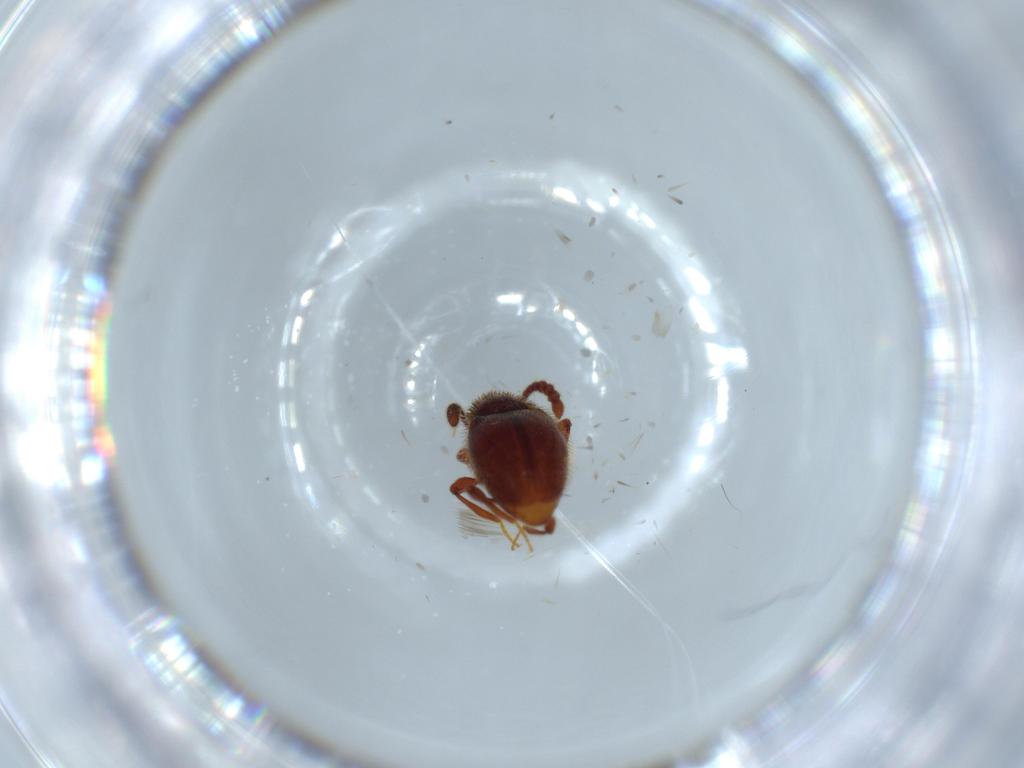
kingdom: Animalia
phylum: Arthropoda
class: Insecta
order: Coleoptera
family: Staphylinidae
